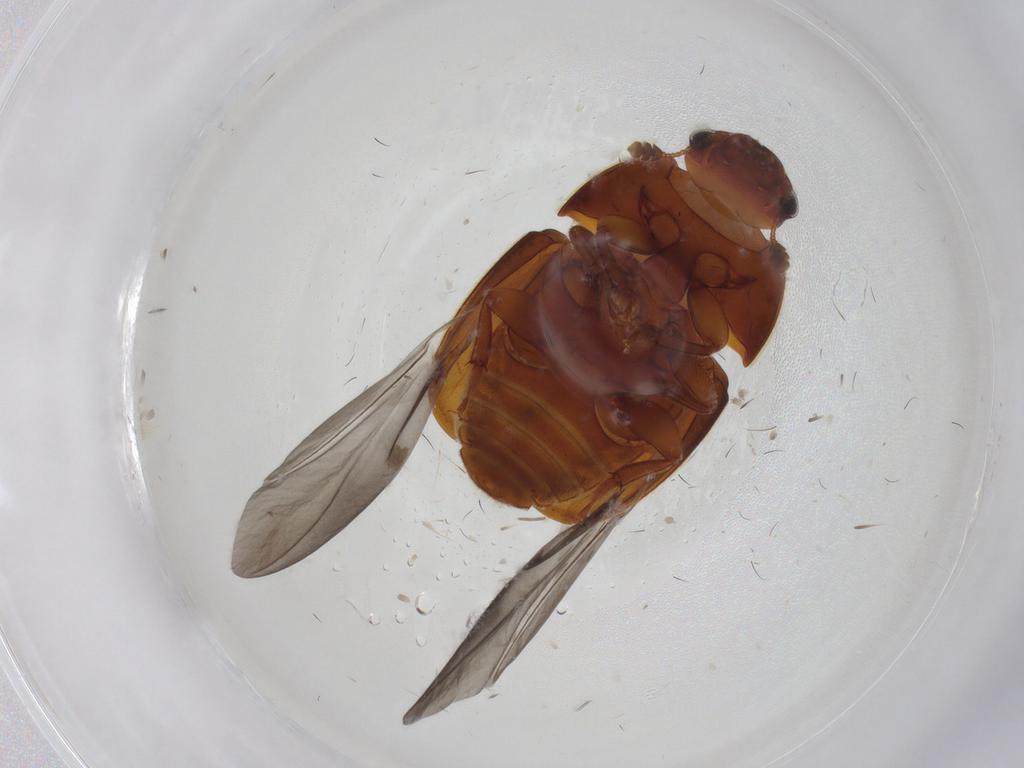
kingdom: Animalia
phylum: Arthropoda
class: Insecta
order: Coleoptera
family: Nitidulidae
